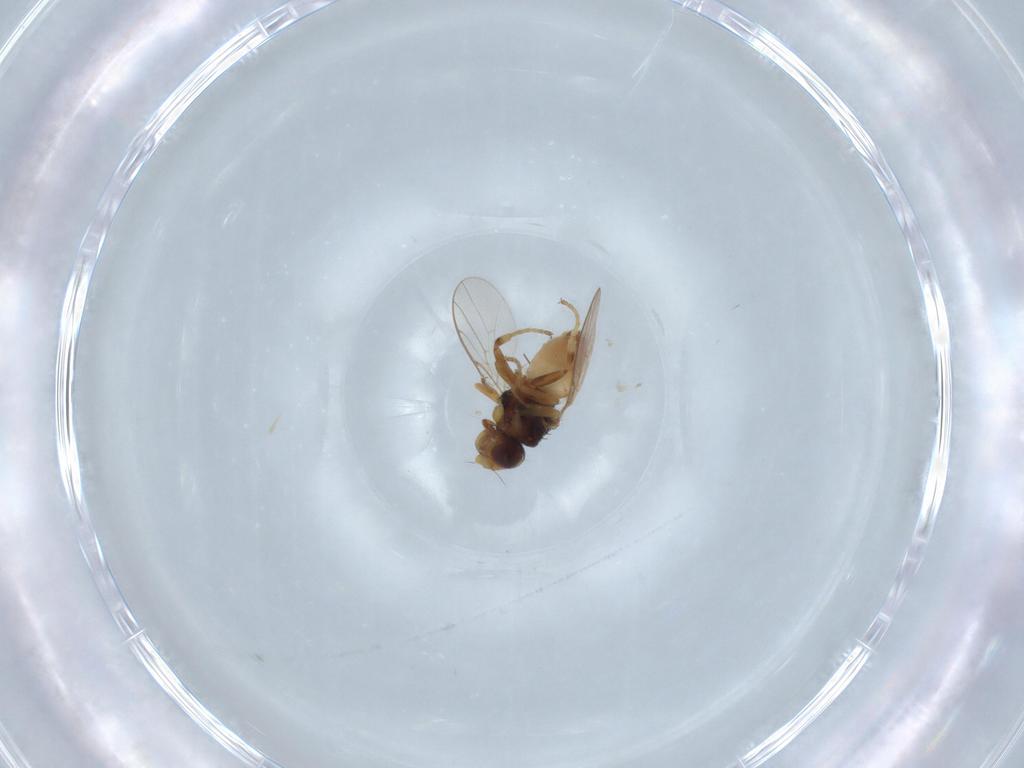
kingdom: Animalia
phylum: Arthropoda
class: Insecta
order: Diptera
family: Chloropidae
